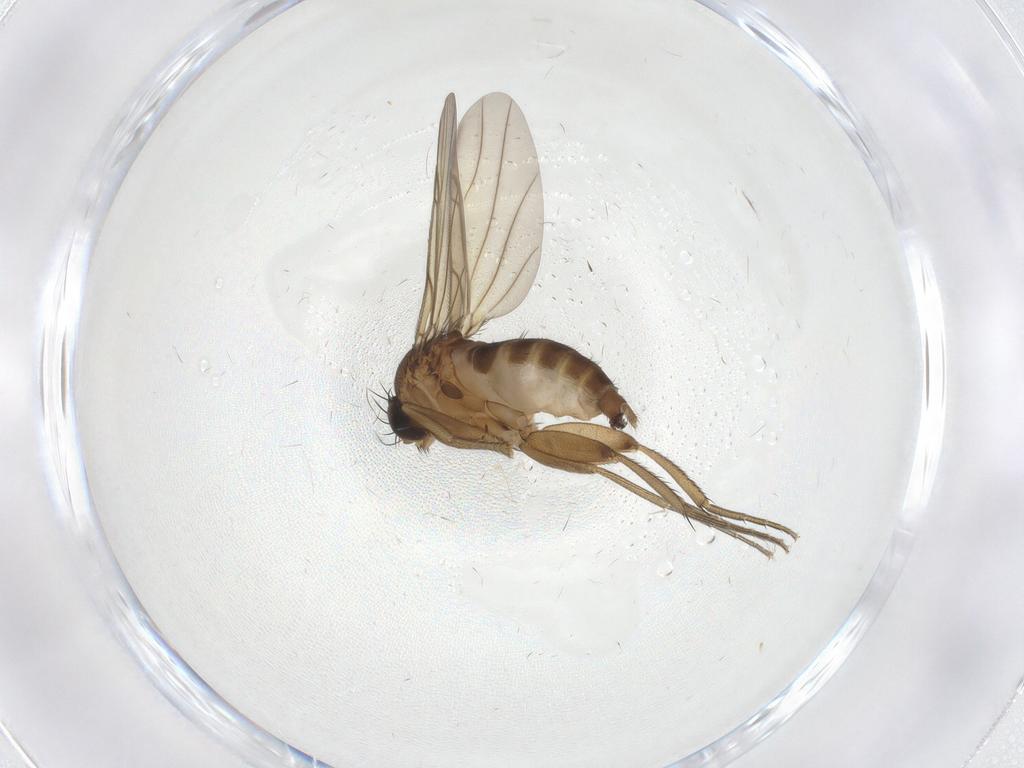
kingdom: Animalia
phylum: Arthropoda
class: Insecta
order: Diptera
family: Phoridae
